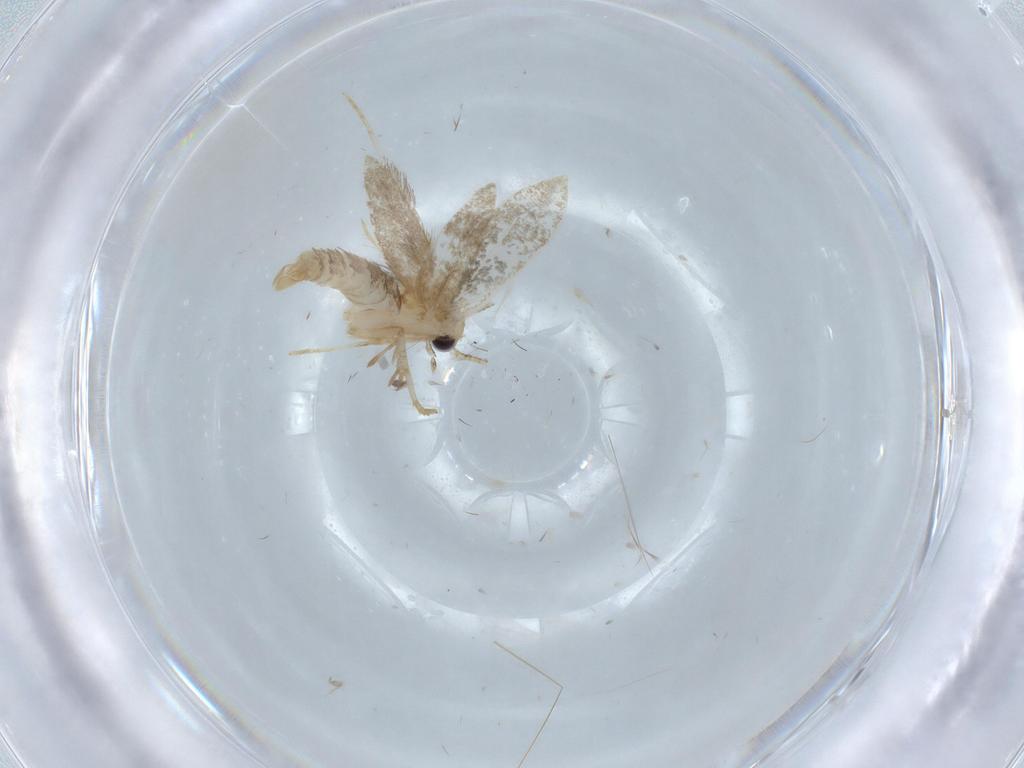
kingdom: Animalia
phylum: Arthropoda
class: Insecta
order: Lepidoptera
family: Tineidae
